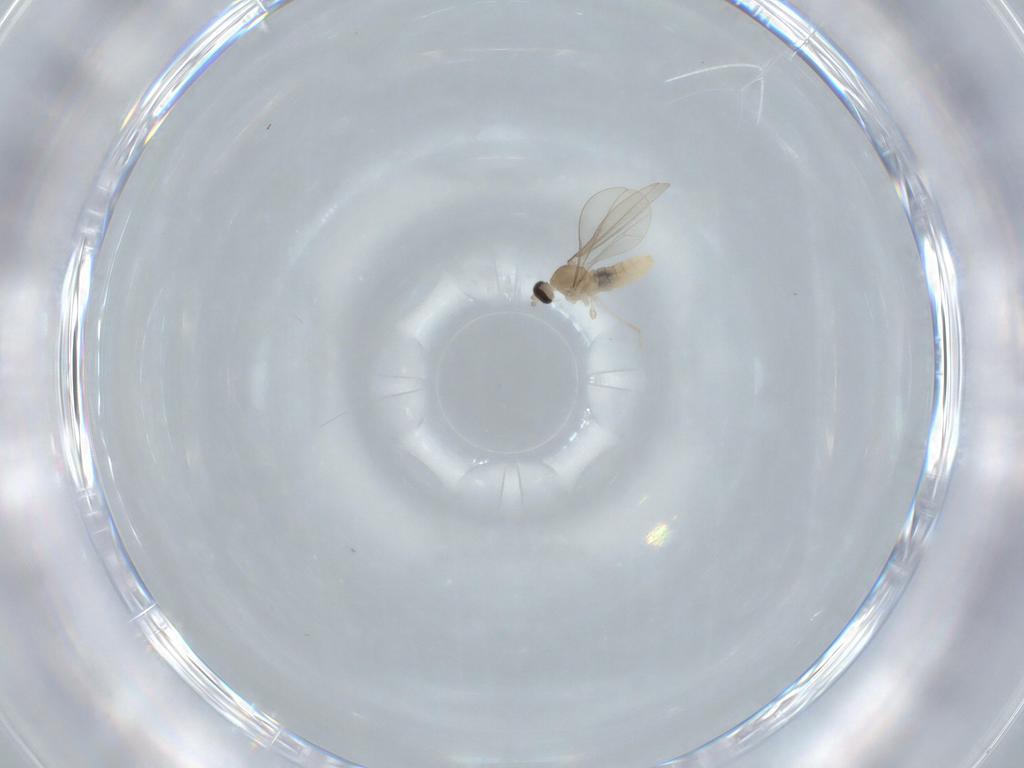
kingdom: Animalia
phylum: Arthropoda
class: Insecta
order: Diptera
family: Cecidomyiidae
